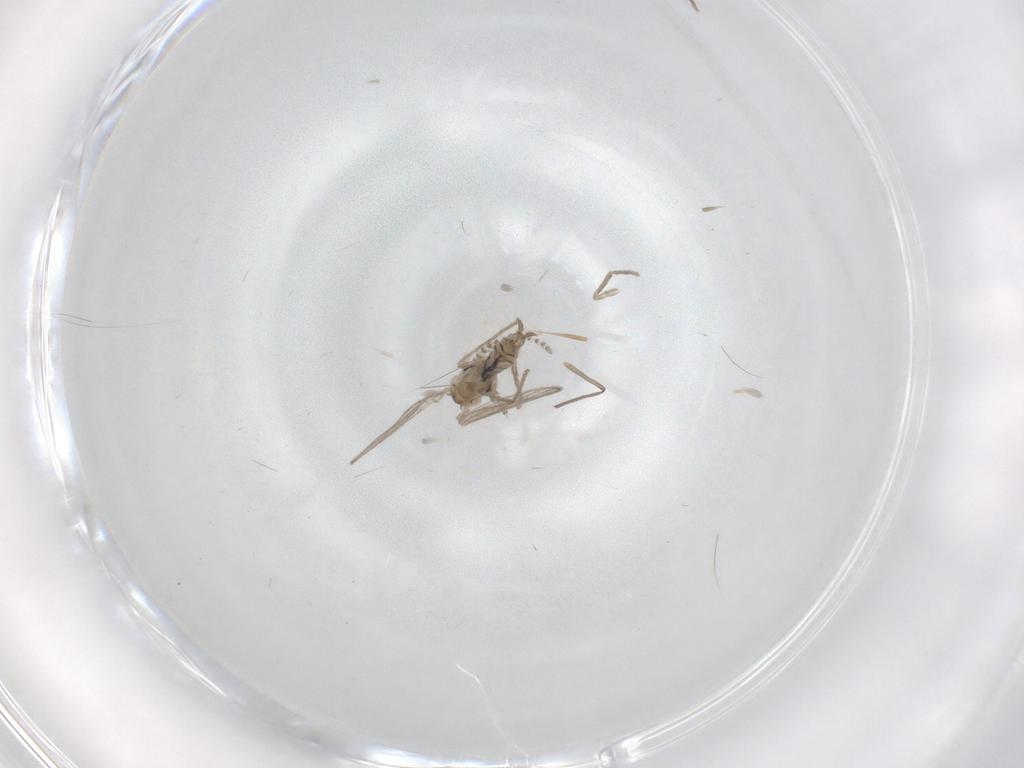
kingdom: Animalia
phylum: Arthropoda
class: Insecta
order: Diptera
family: Psychodidae
